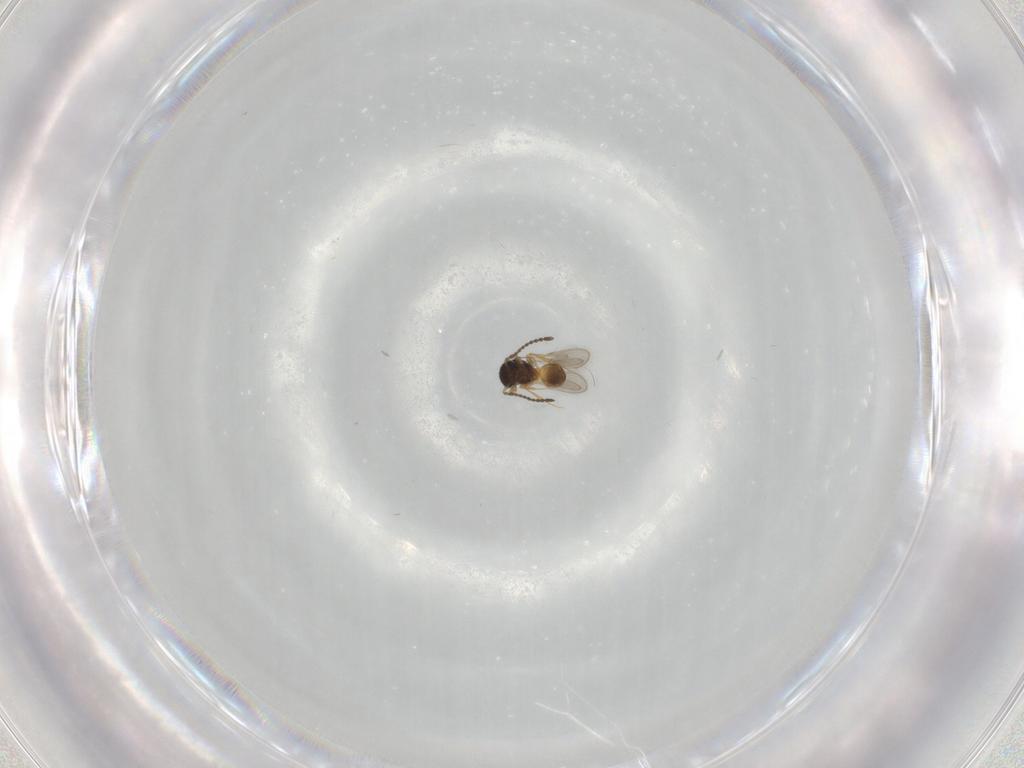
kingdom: Animalia
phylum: Arthropoda
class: Insecta
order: Hymenoptera
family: Scelionidae
